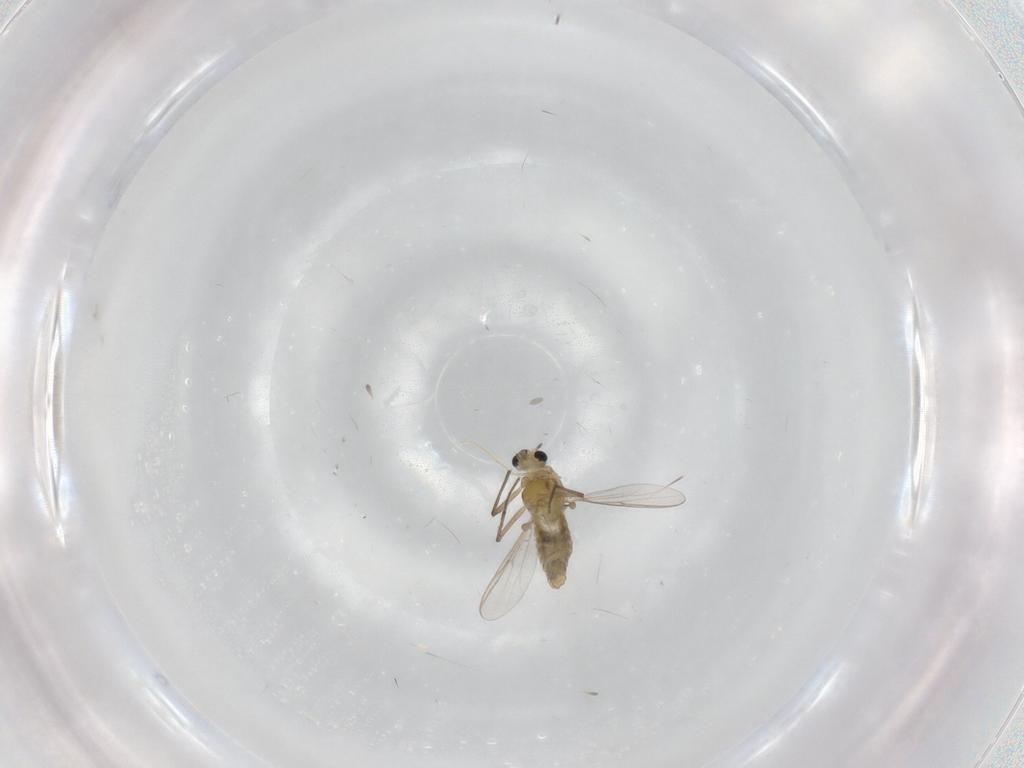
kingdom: Animalia
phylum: Arthropoda
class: Insecta
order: Diptera
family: Chironomidae
